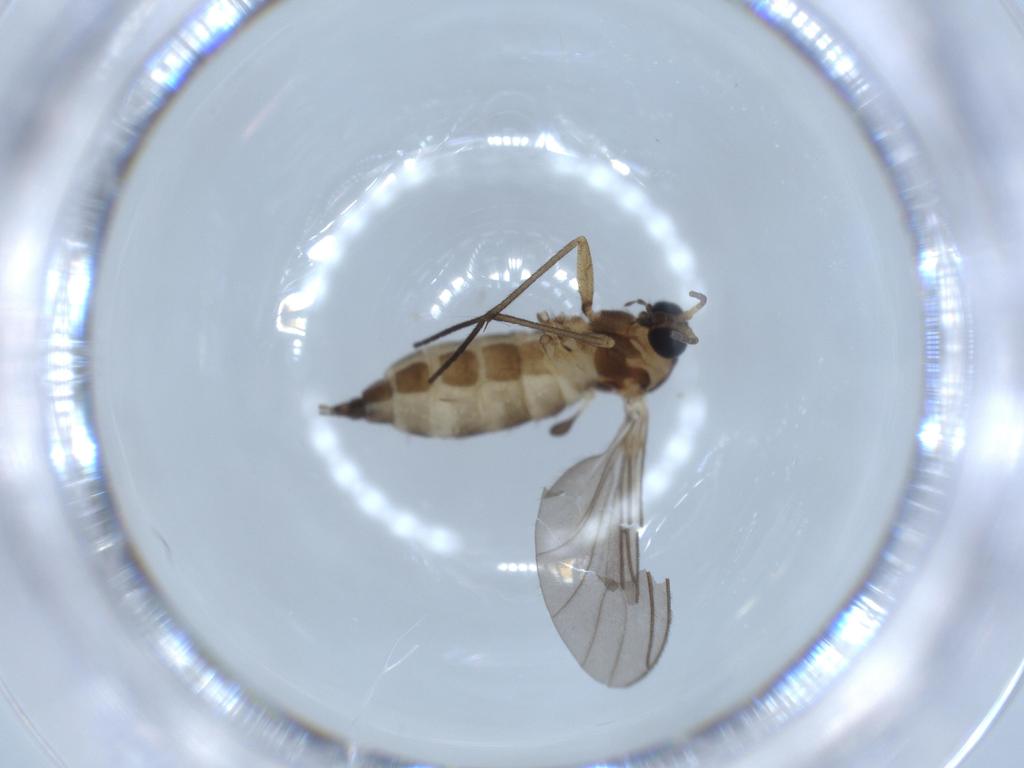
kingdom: Animalia
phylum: Arthropoda
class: Insecta
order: Diptera
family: Sciaridae
